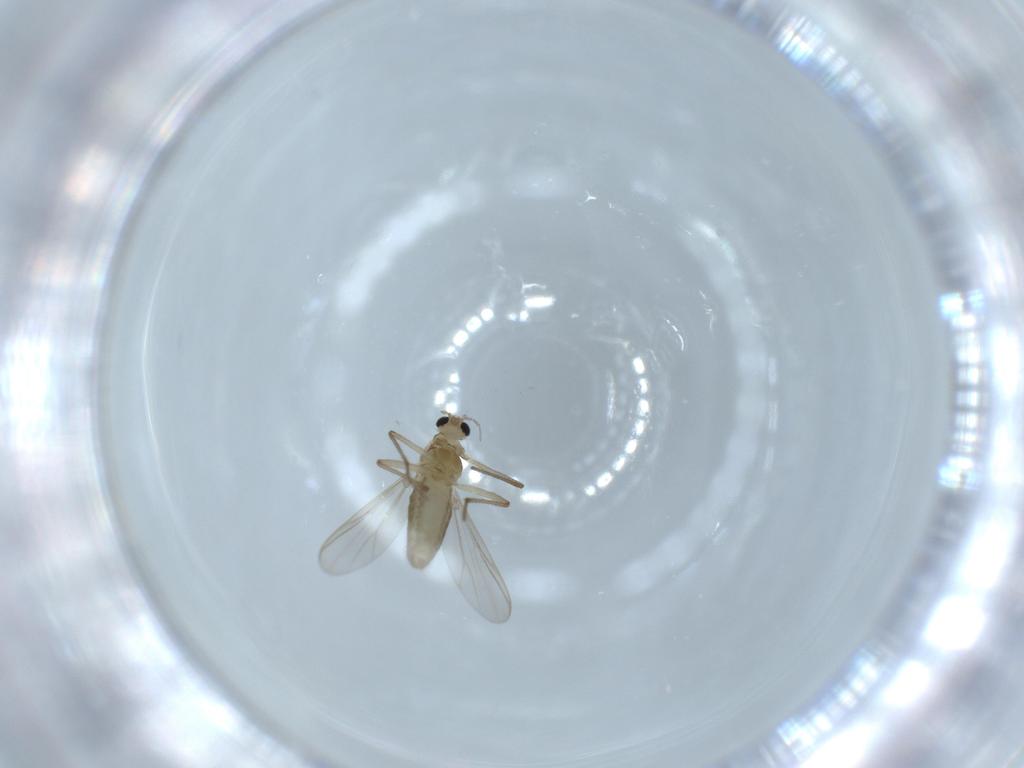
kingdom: Animalia
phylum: Arthropoda
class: Insecta
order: Diptera
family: Chironomidae
